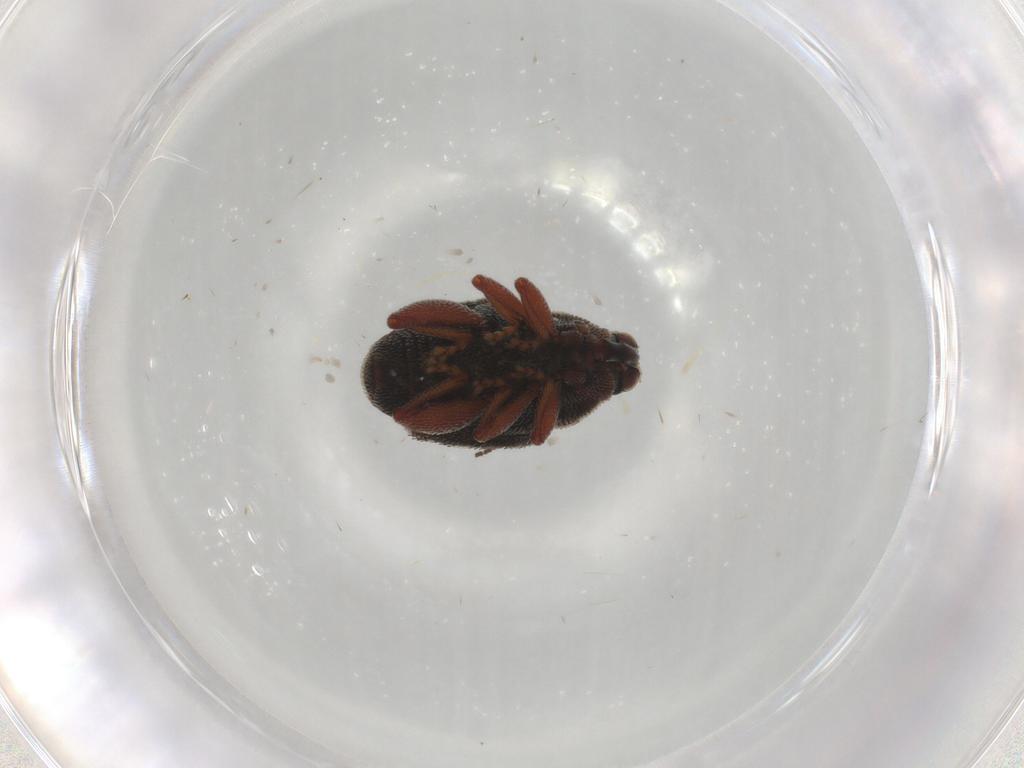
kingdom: Animalia
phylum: Arthropoda
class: Insecta
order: Coleoptera
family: Curculionidae
